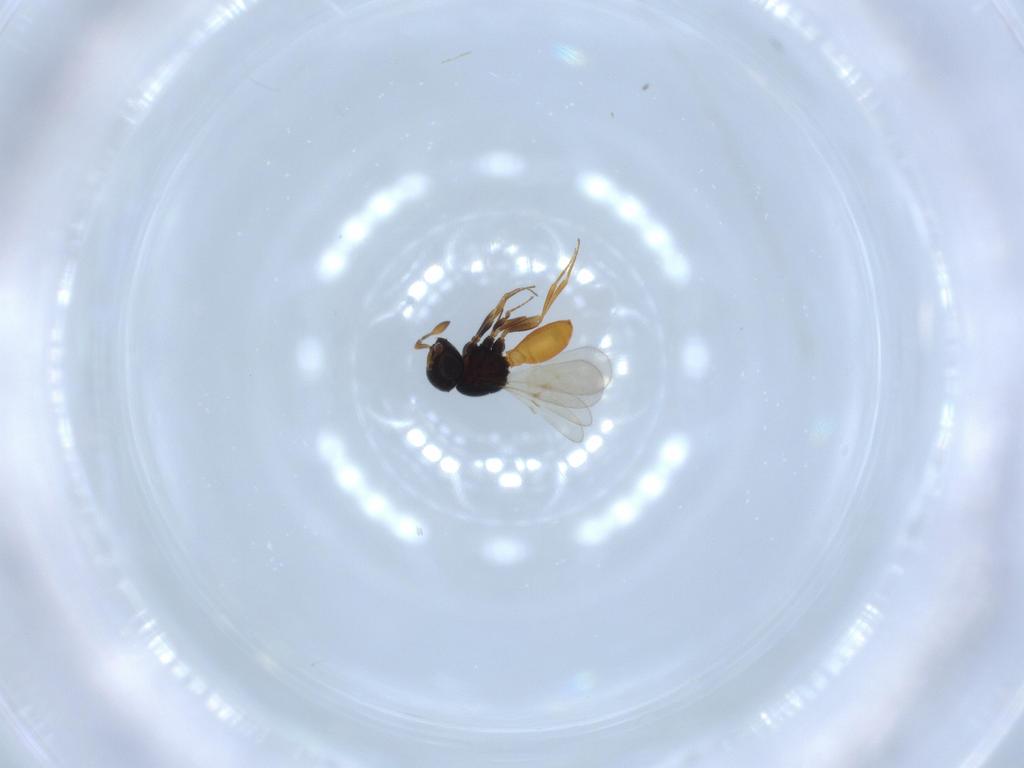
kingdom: Animalia
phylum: Arthropoda
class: Insecta
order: Hymenoptera
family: Scelionidae
